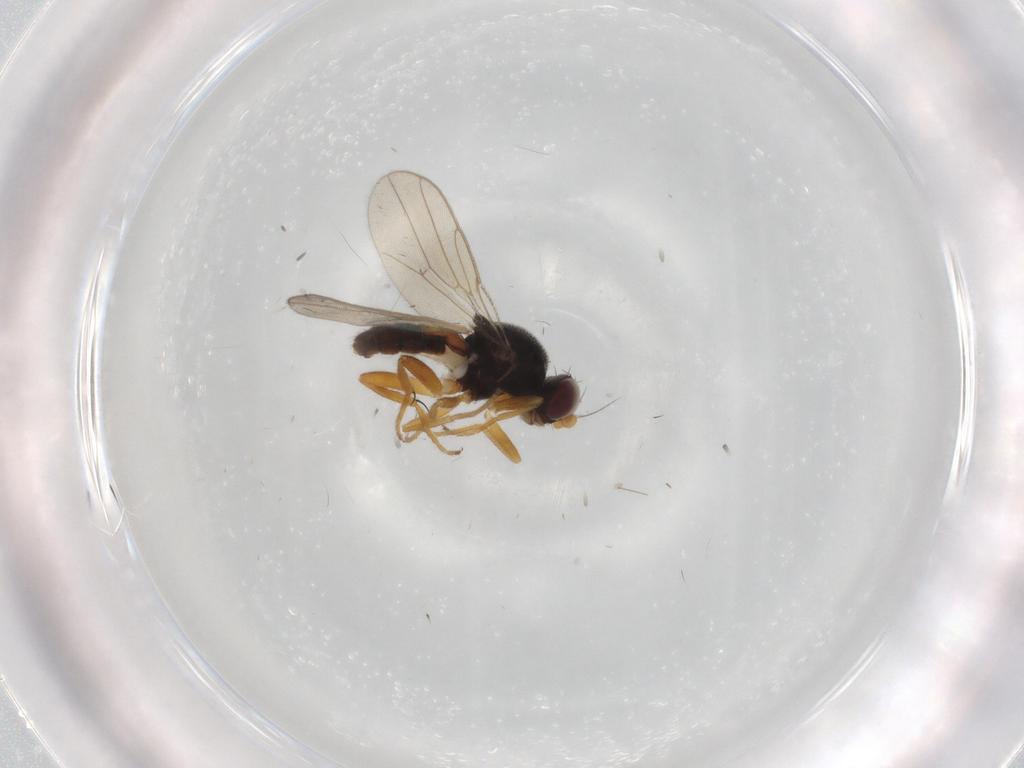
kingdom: Animalia
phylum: Arthropoda
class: Insecta
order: Diptera
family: Chloropidae
